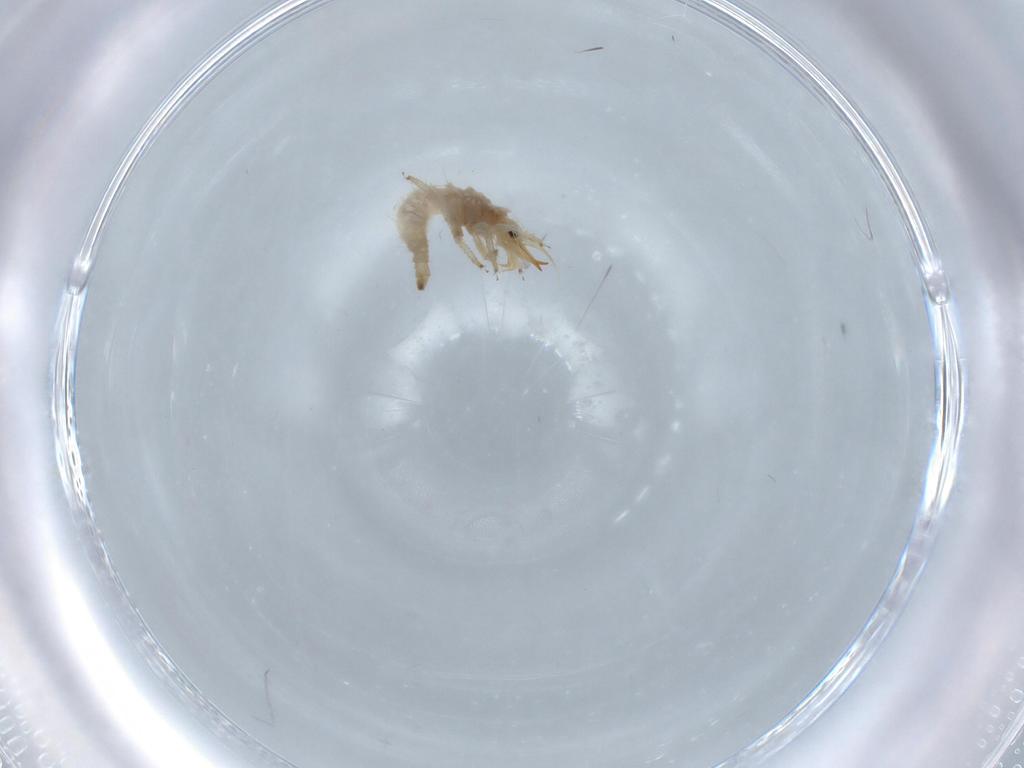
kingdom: Animalia
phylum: Arthropoda
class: Insecta
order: Neuroptera
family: Chrysopidae
